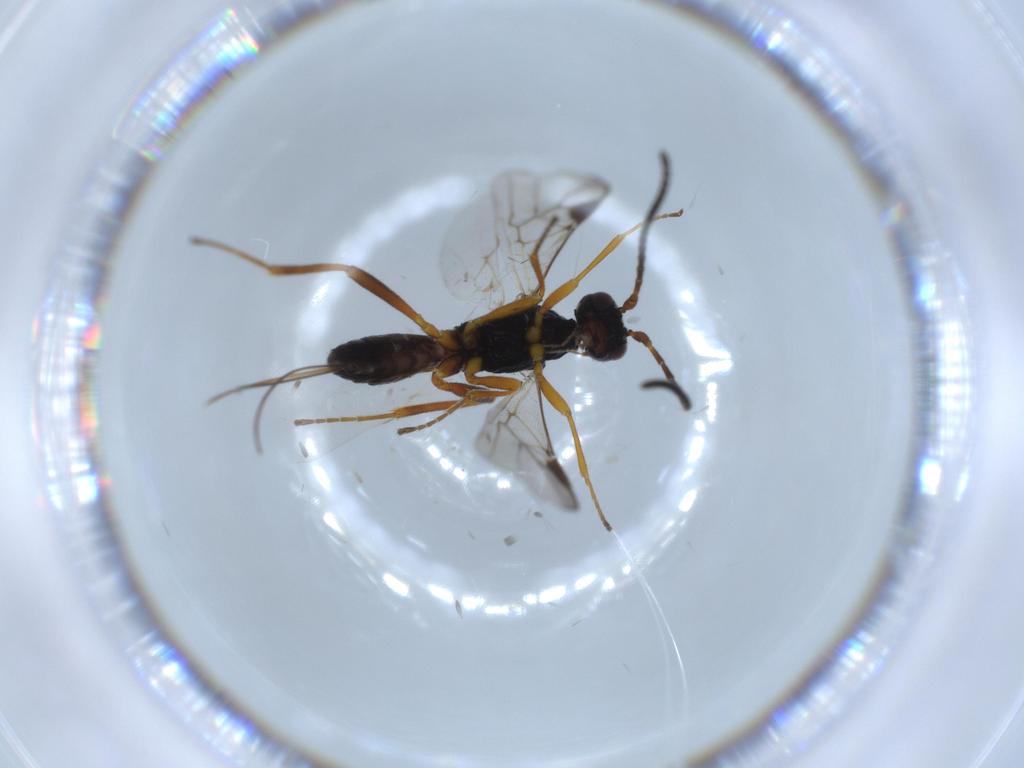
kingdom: Animalia
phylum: Arthropoda
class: Insecta
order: Hymenoptera
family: Braconidae
